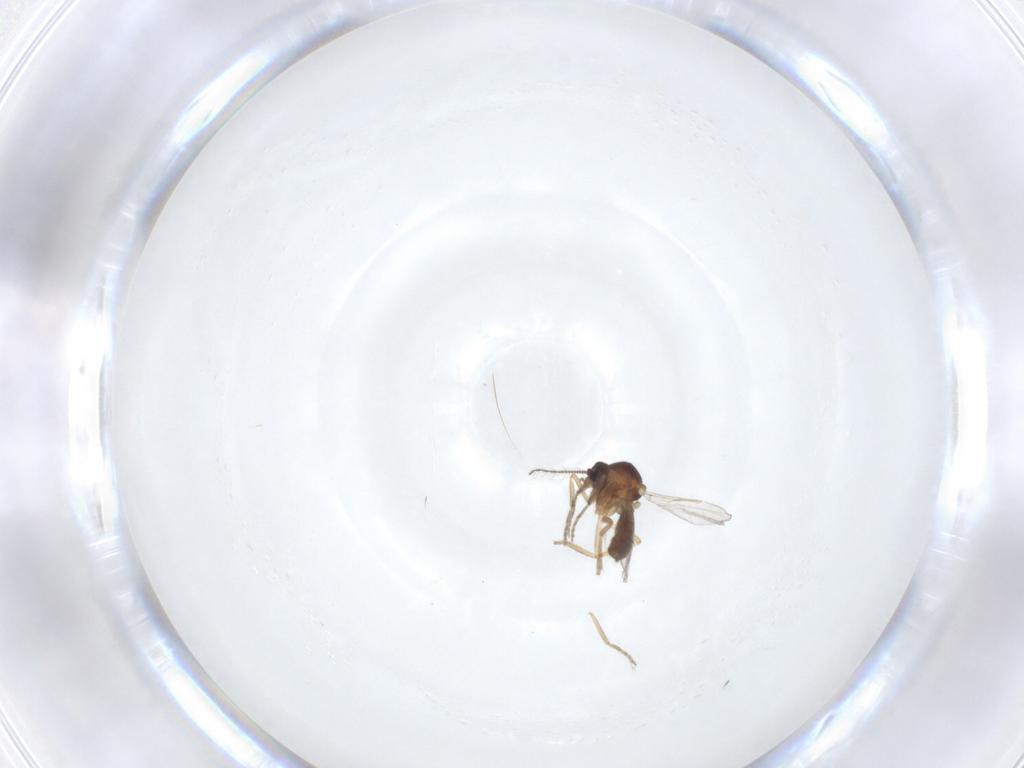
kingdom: Animalia
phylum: Arthropoda
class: Insecta
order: Diptera
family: Ceratopogonidae
